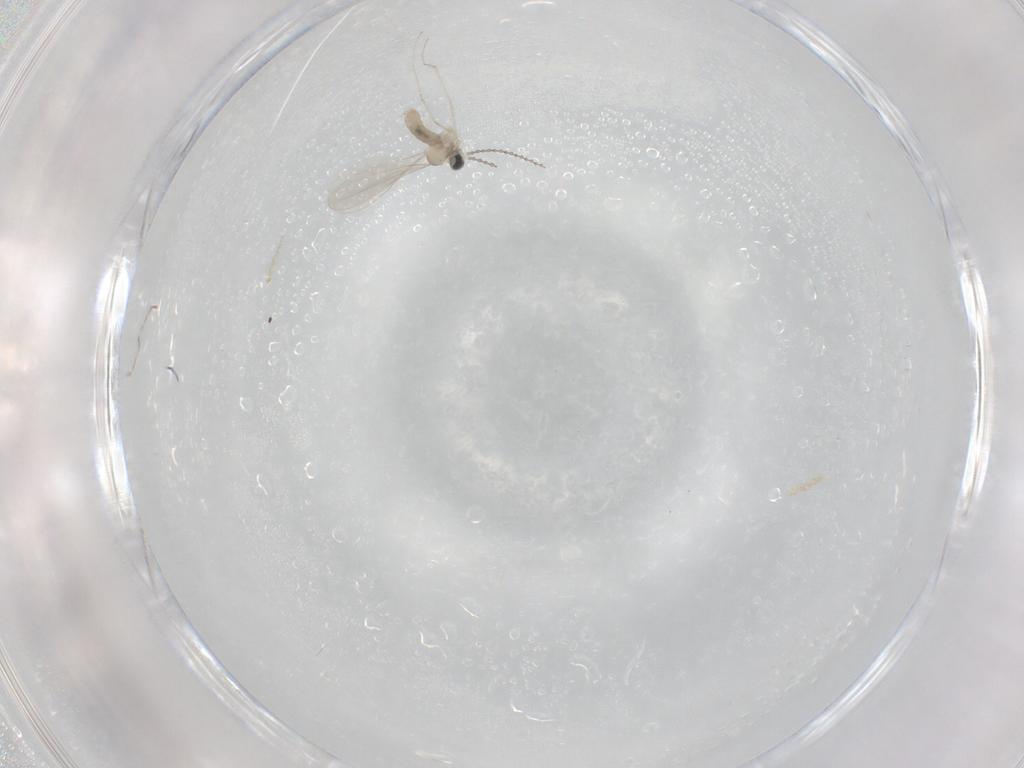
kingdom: Animalia
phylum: Arthropoda
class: Insecta
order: Diptera
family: Cecidomyiidae
